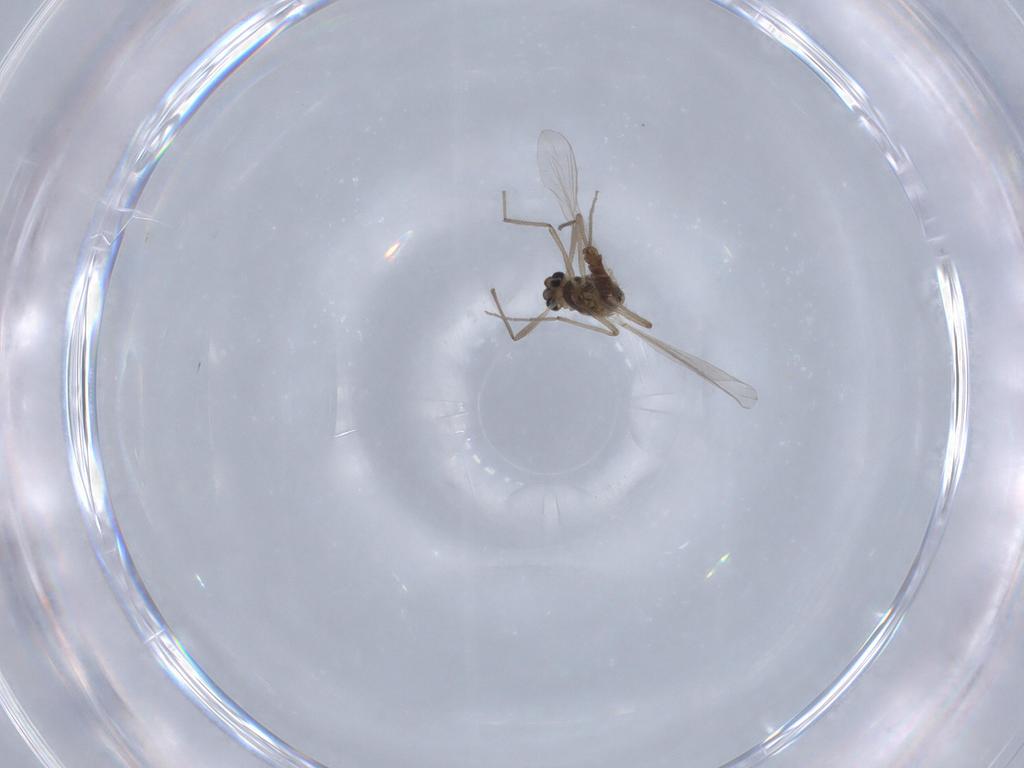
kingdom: Animalia
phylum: Arthropoda
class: Insecta
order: Diptera
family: Chironomidae
